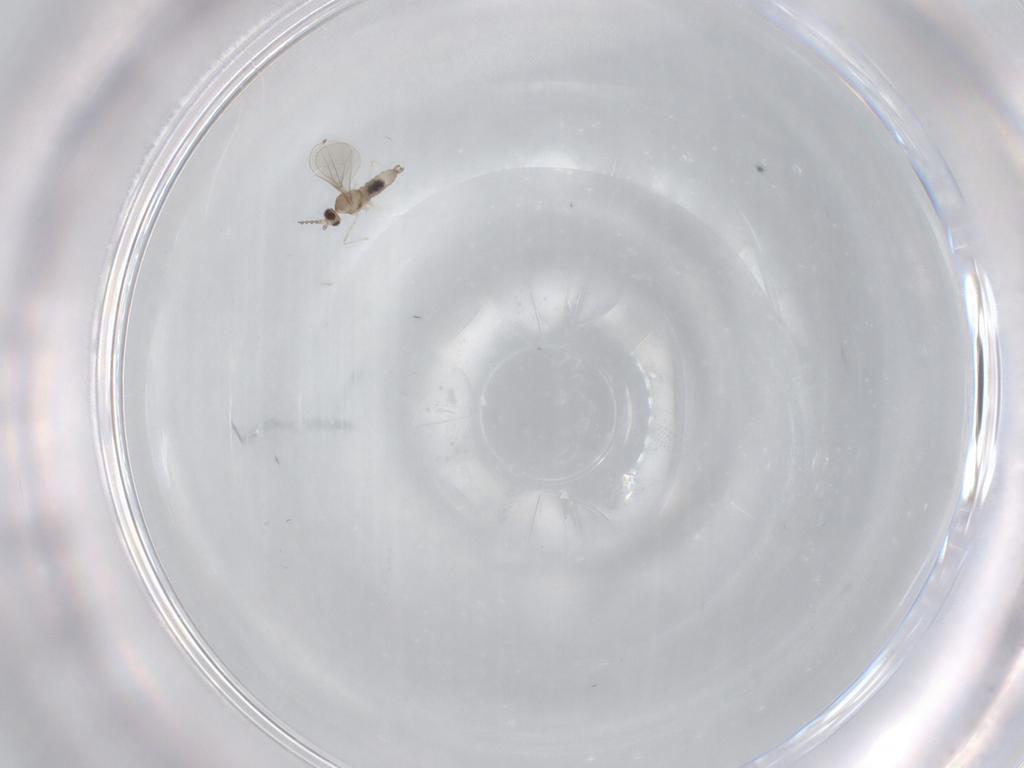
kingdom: Animalia
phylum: Arthropoda
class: Insecta
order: Diptera
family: Cecidomyiidae
